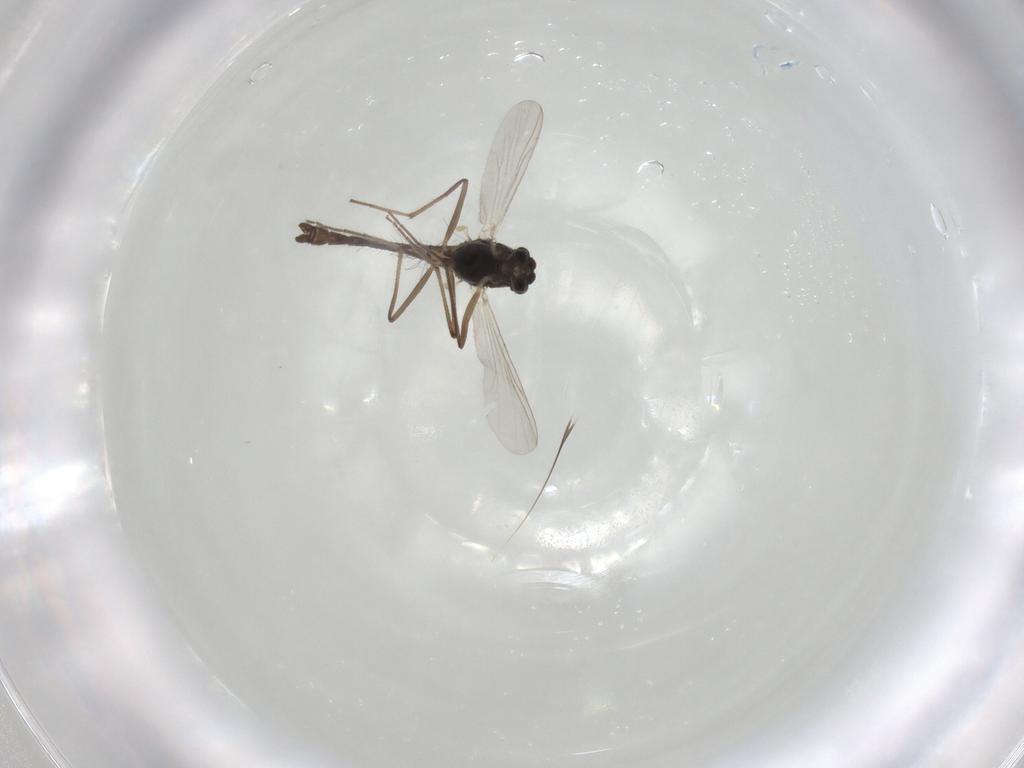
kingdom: Animalia
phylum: Arthropoda
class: Insecta
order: Diptera
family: Chironomidae
